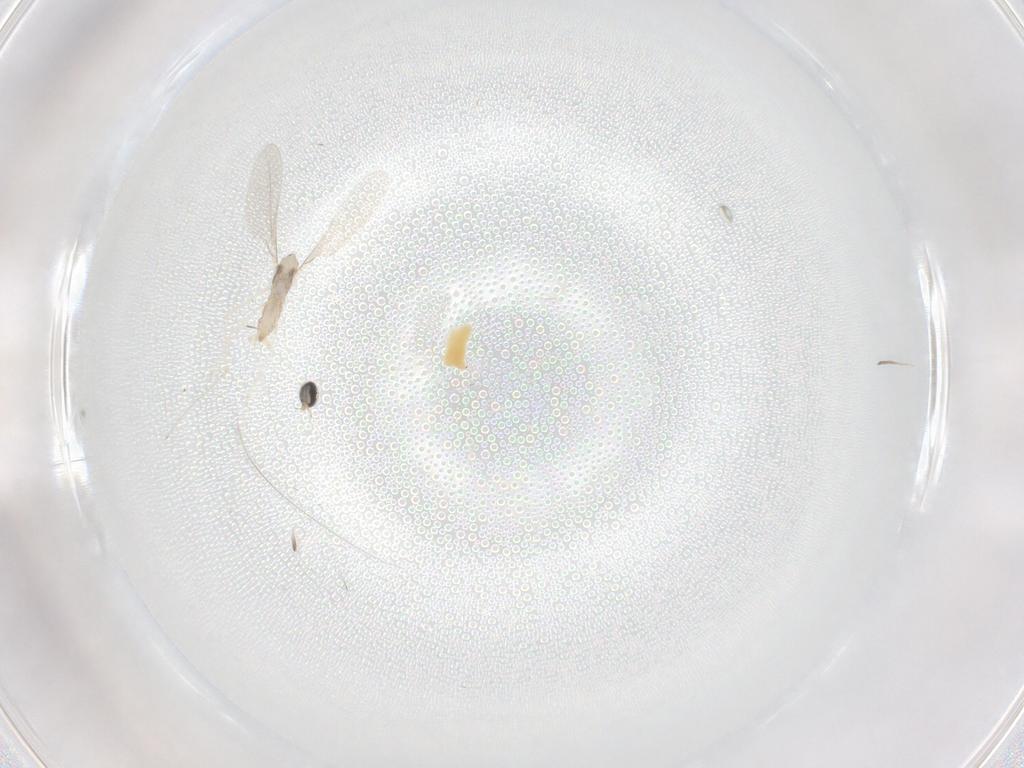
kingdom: Animalia
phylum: Arthropoda
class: Insecta
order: Diptera
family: Cecidomyiidae
